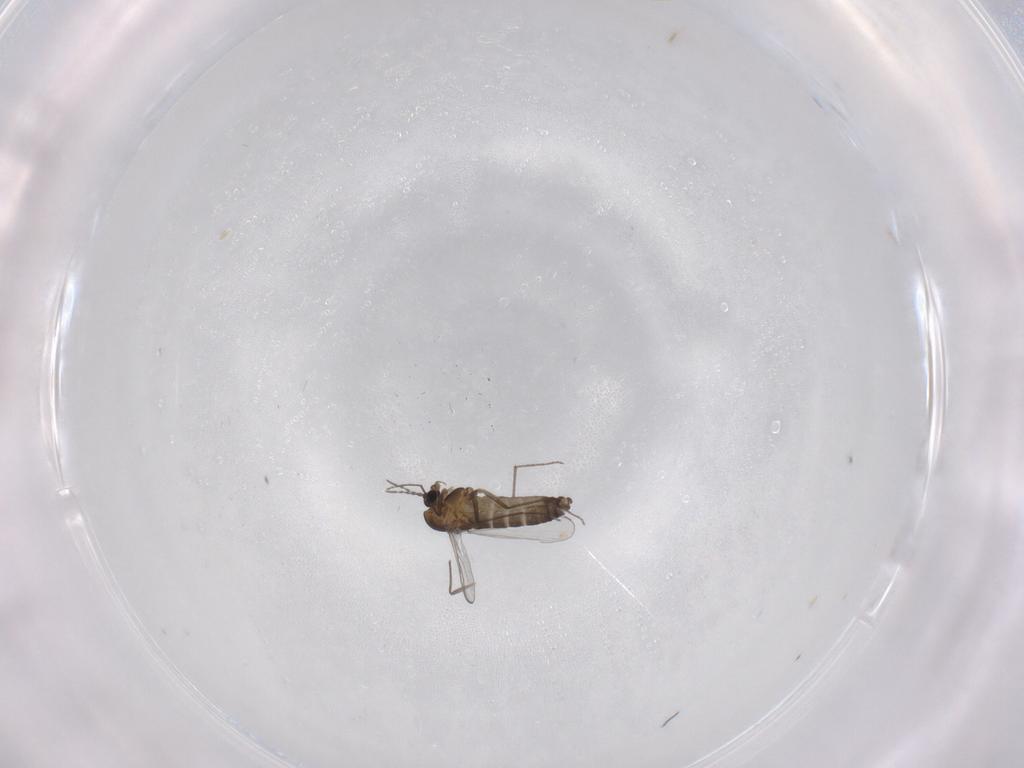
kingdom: Animalia
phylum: Arthropoda
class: Insecta
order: Diptera
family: Chironomidae
